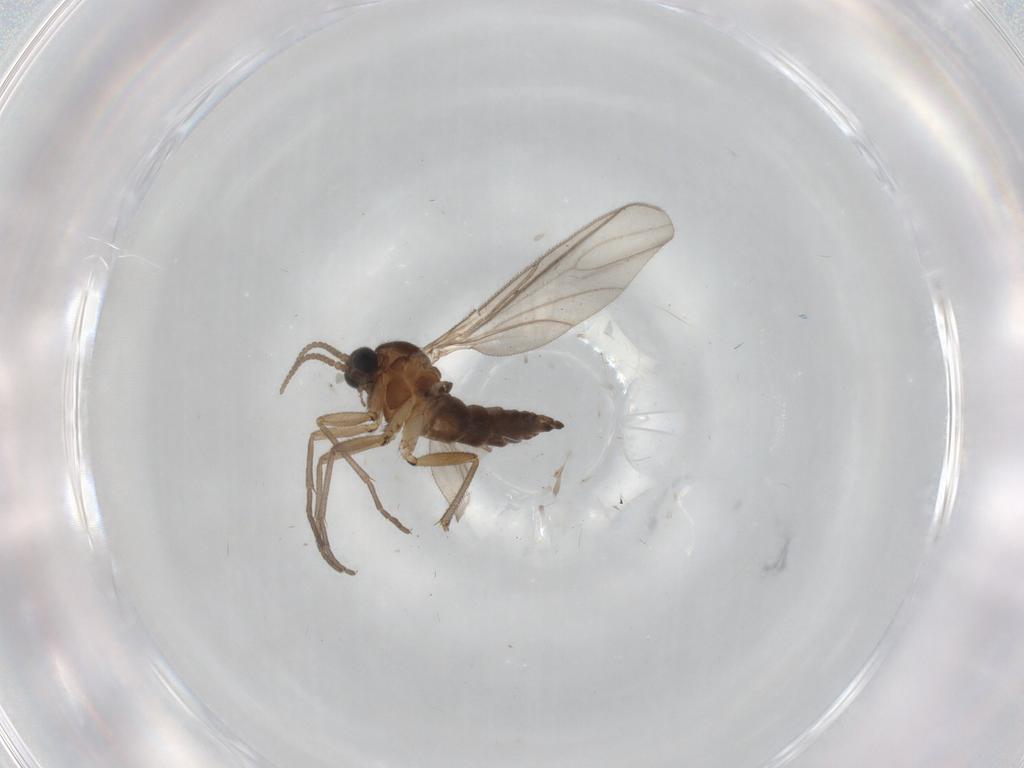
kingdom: Animalia
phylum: Arthropoda
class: Insecta
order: Diptera
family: Sciaridae
